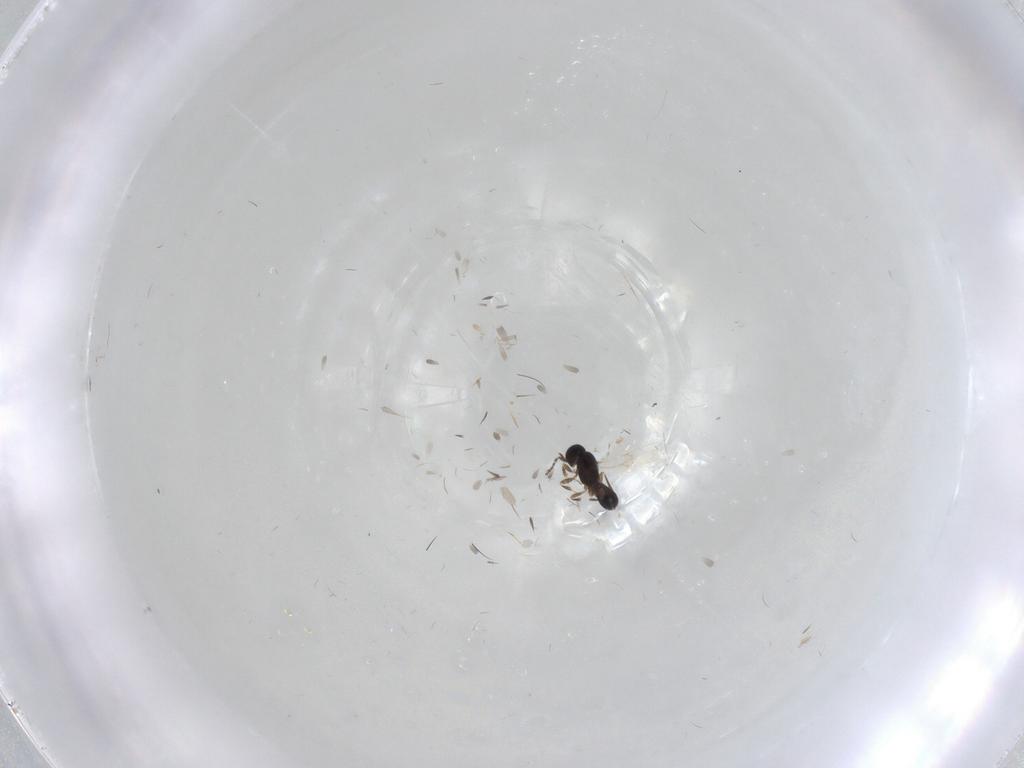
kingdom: Animalia
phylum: Arthropoda
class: Insecta
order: Hymenoptera
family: Scelionidae
